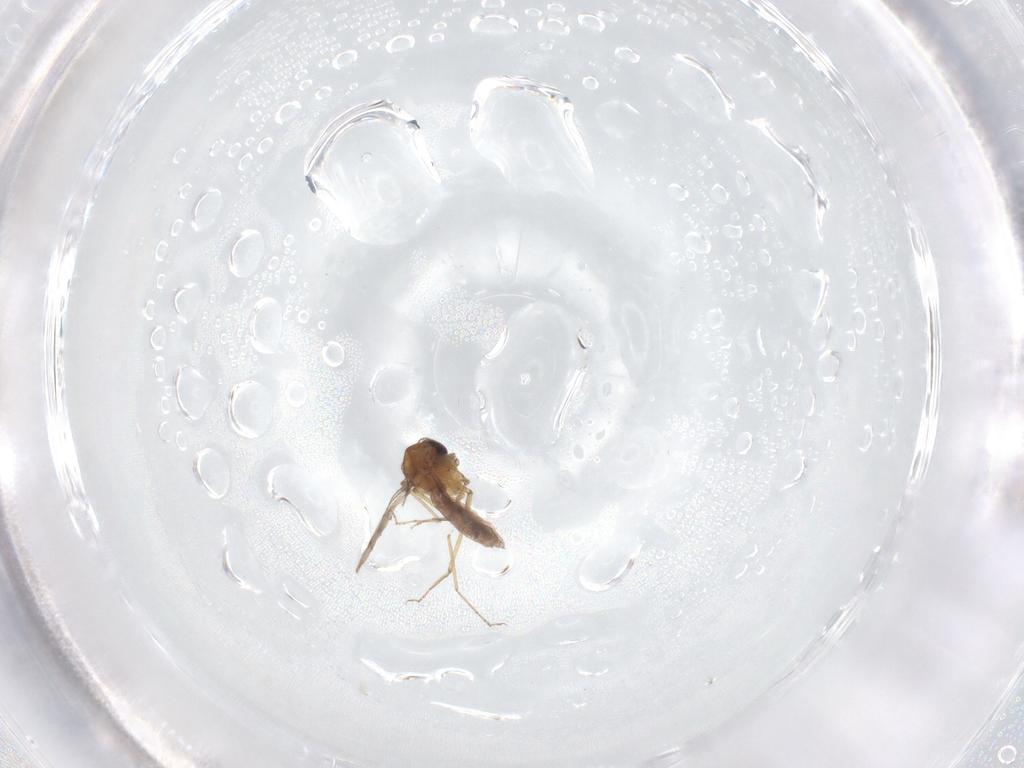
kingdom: Animalia
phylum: Arthropoda
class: Insecta
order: Diptera
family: Sciaridae
